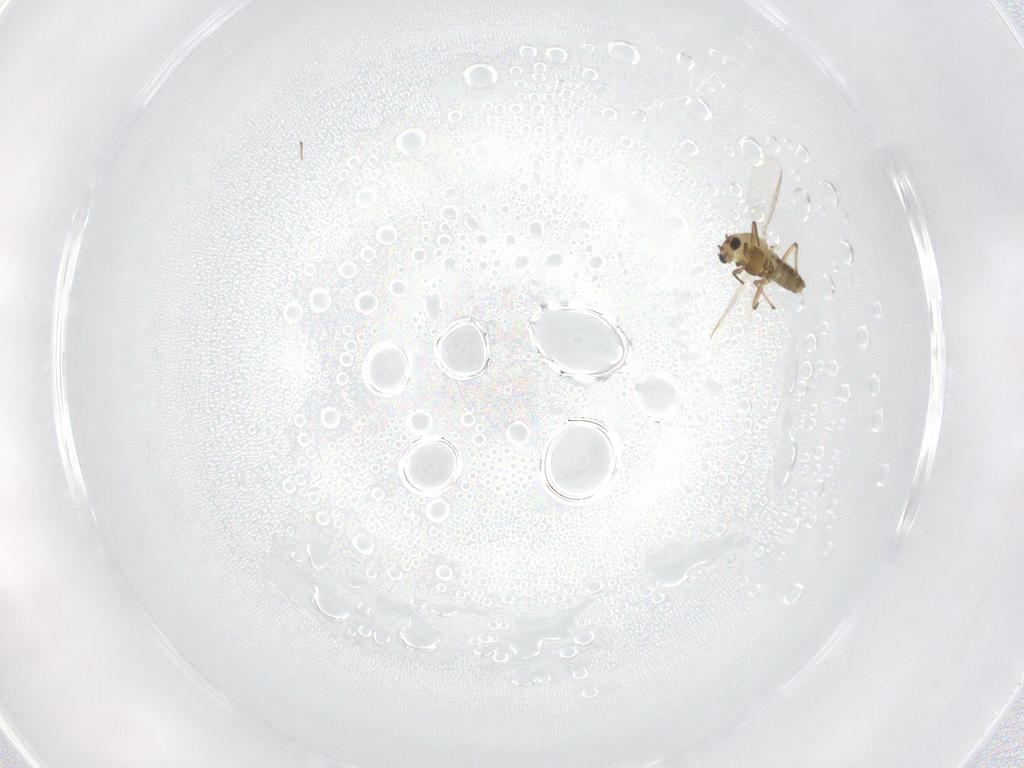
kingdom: Animalia
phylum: Arthropoda
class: Insecta
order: Diptera
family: Chironomidae
